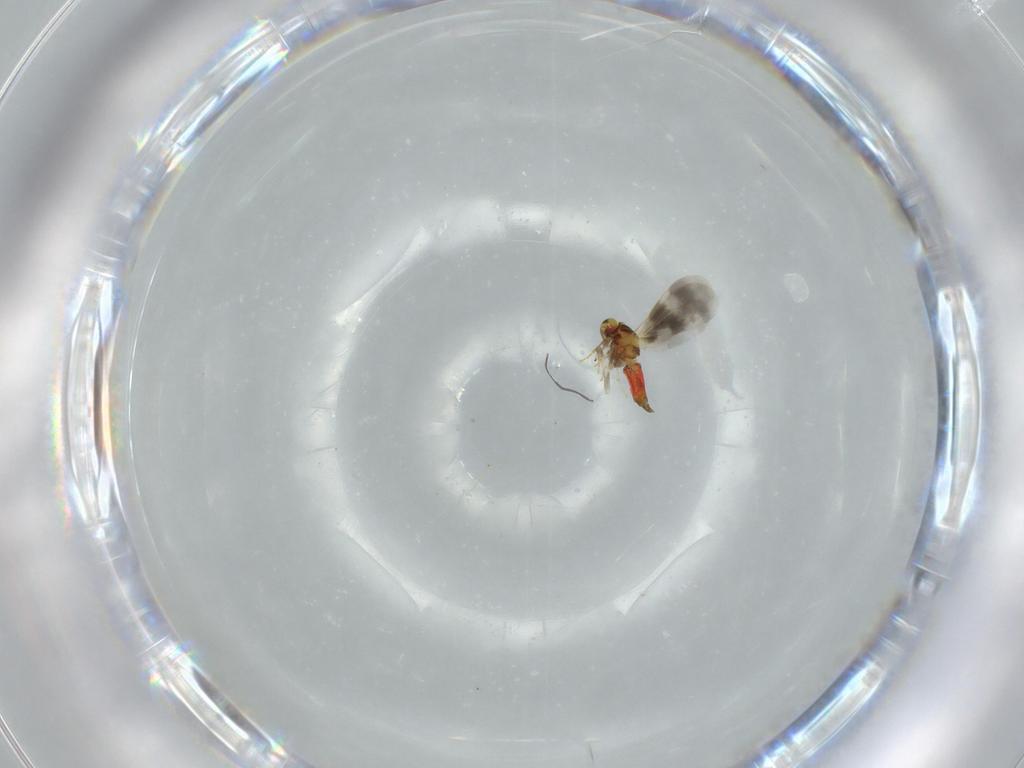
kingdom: Animalia
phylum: Arthropoda
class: Insecta
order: Hemiptera
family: Aleyrodidae
